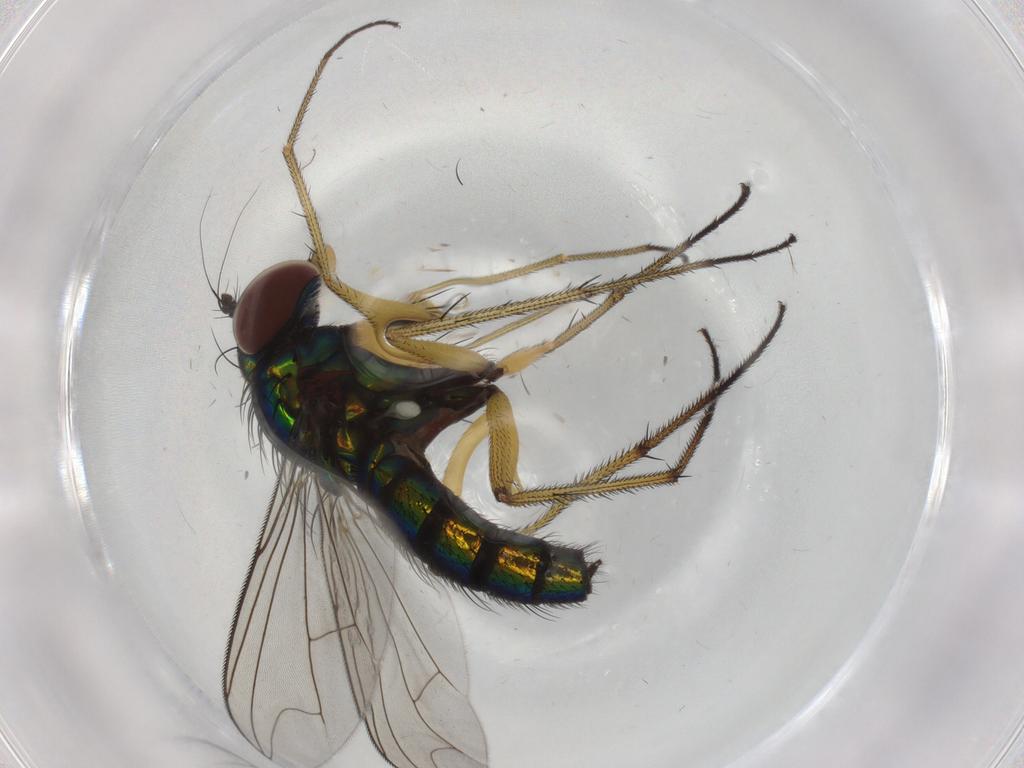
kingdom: Animalia
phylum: Arthropoda
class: Insecta
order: Diptera
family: Dolichopodidae
